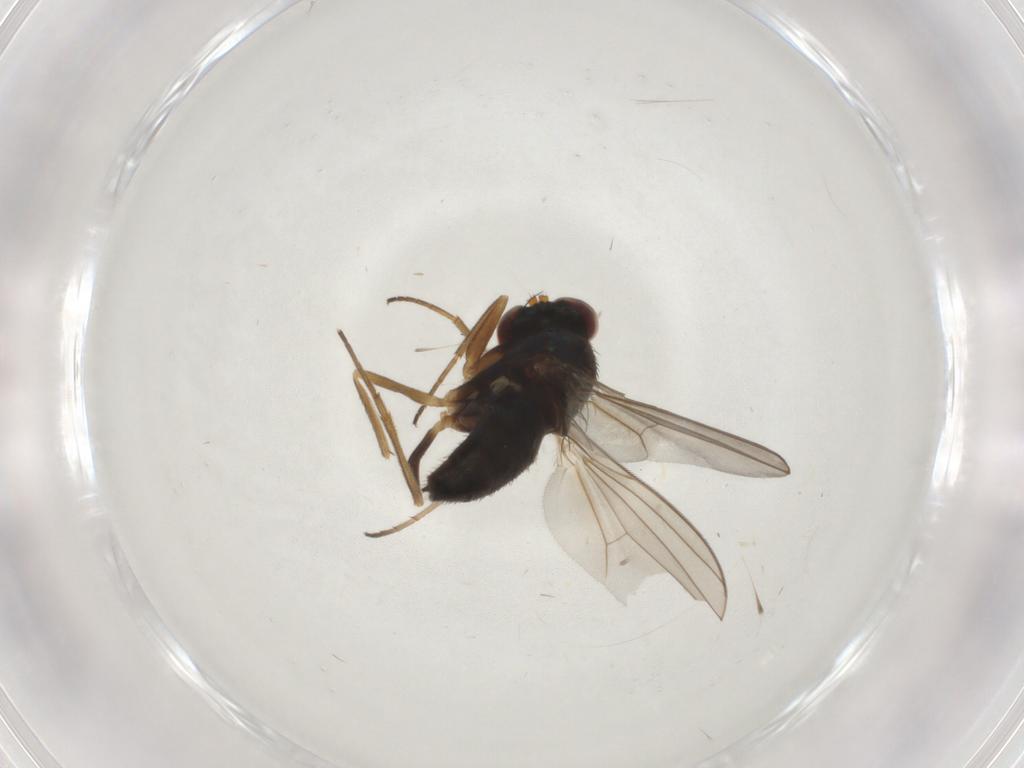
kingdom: Animalia
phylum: Arthropoda
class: Insecta
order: Diptera
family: Dolichopodidae
